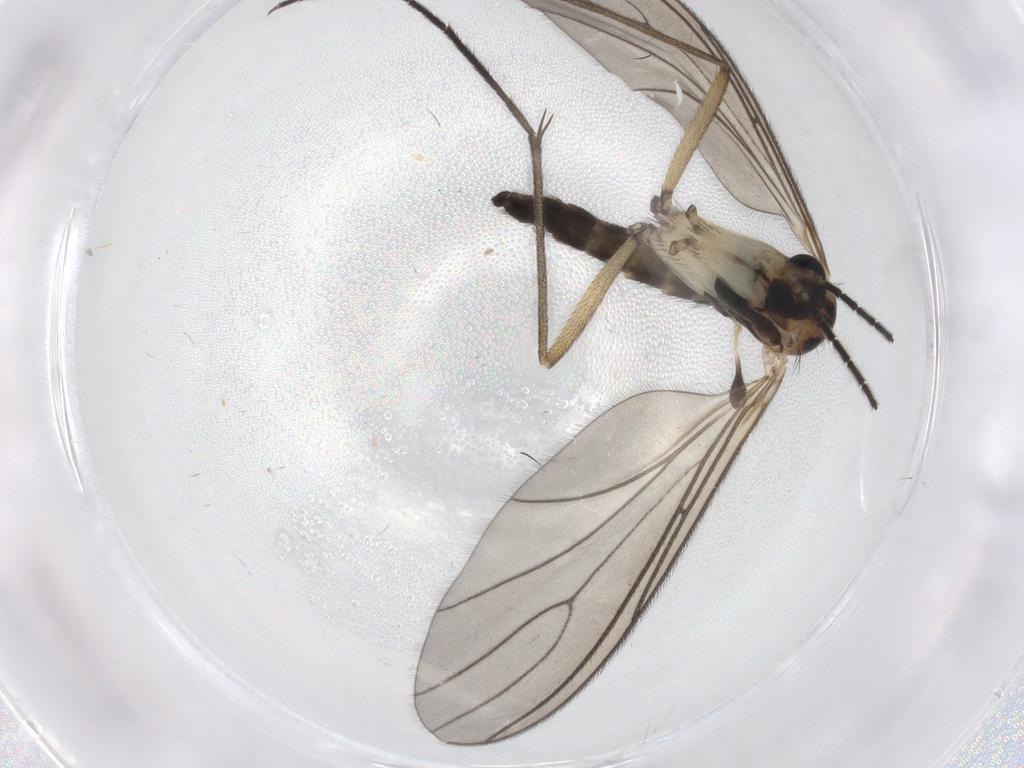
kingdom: Animalia
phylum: Arthropoda
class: Insecta
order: Diptera
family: Sciaridae
